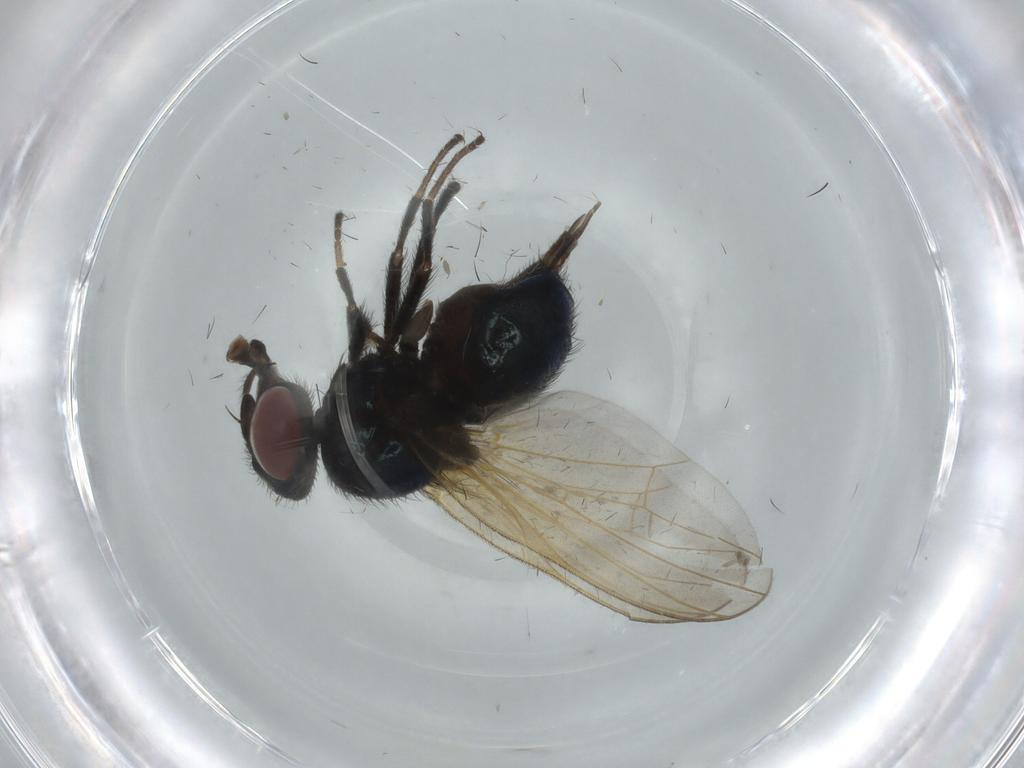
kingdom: Animalia
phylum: Arthropoda
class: Insecta
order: Diptera
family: Lonchaeidae
